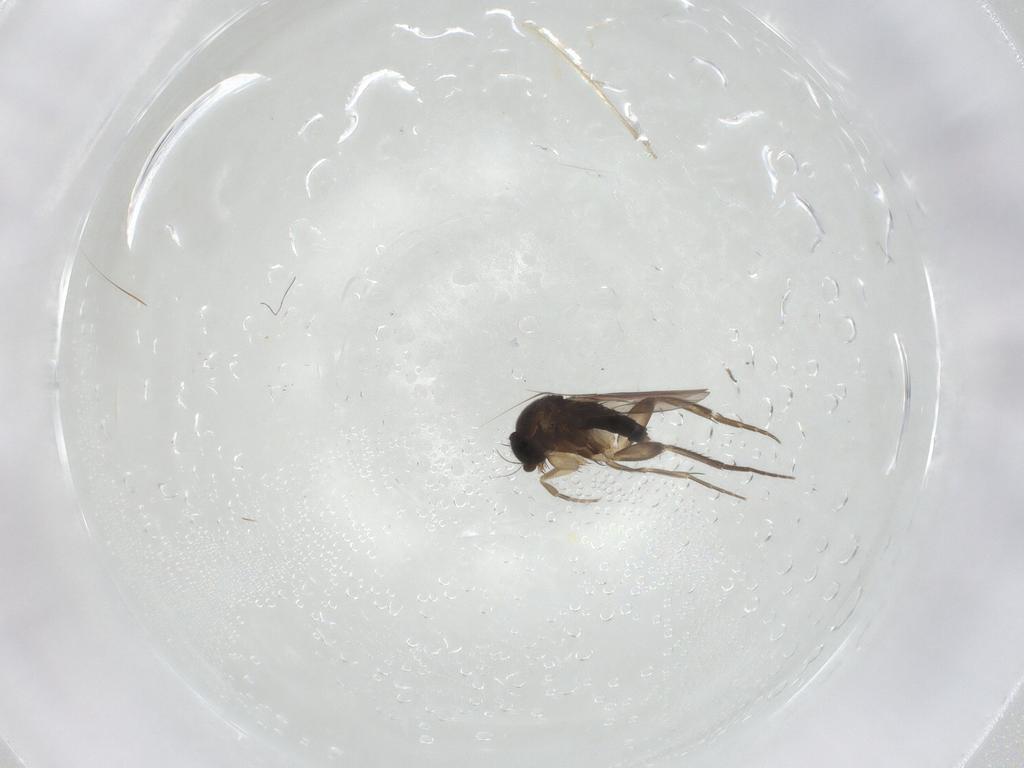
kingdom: Animalia
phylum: Arthropoda
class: Insecta
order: Diptera
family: Phoridae
